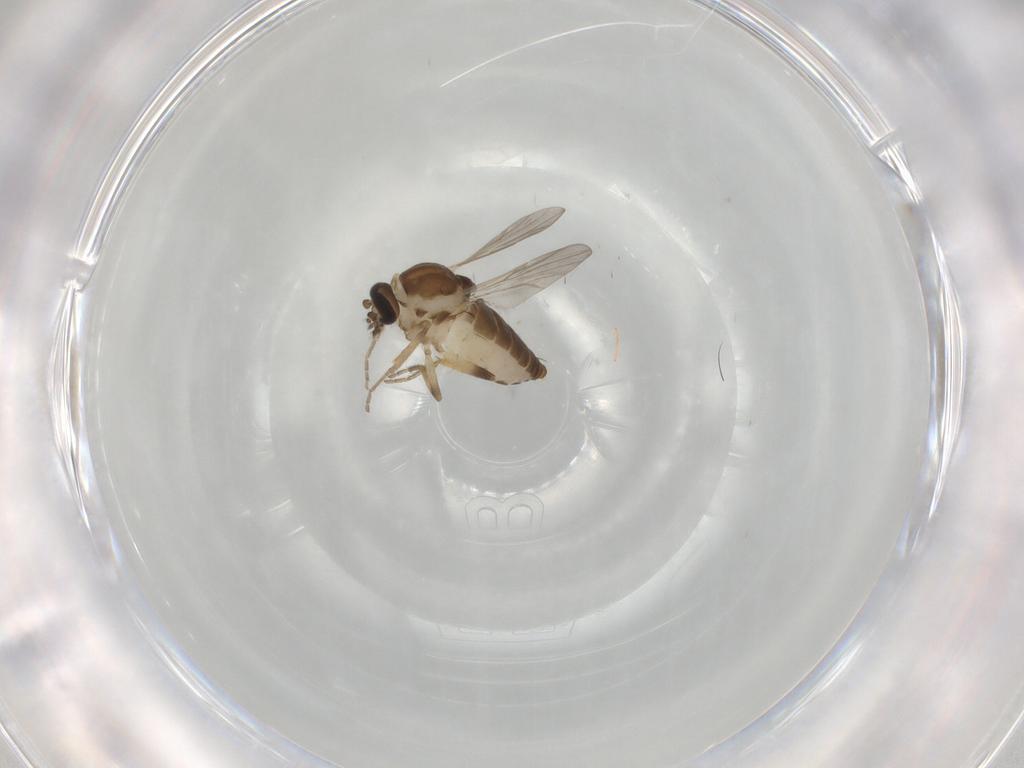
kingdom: Animalia
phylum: Arthropoda
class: Insecta
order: Diptera
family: Ceratopogonidae
